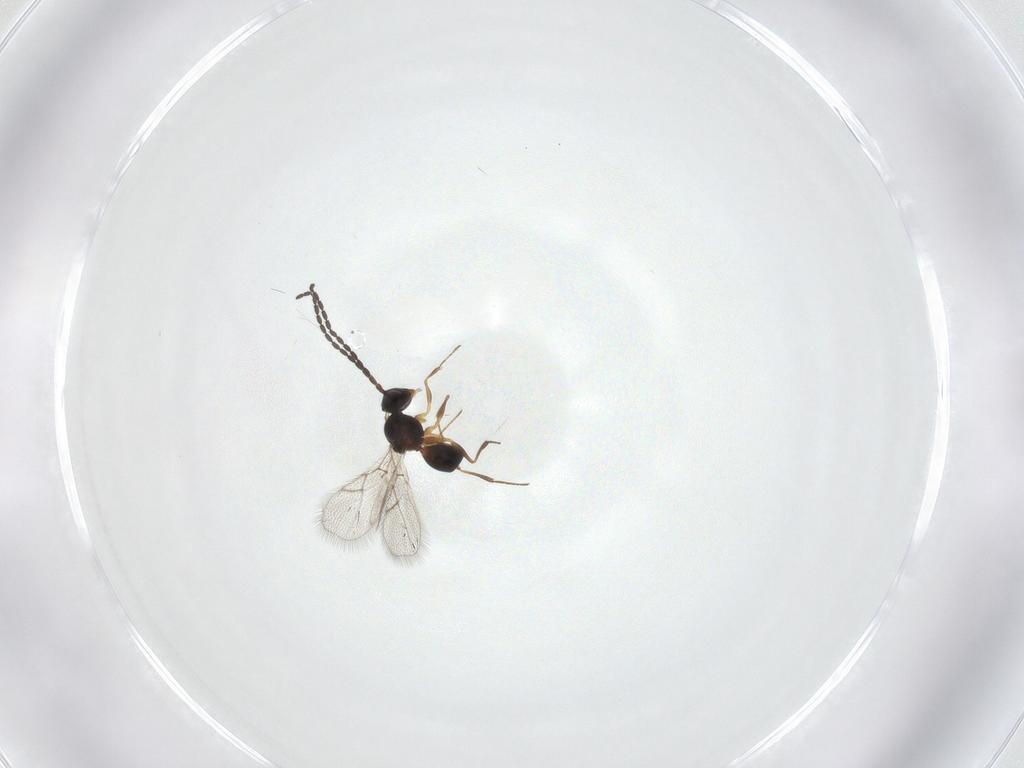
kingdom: Animalia
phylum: Arthropoda
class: Insecta
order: Hymenoptera
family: Figitidae
